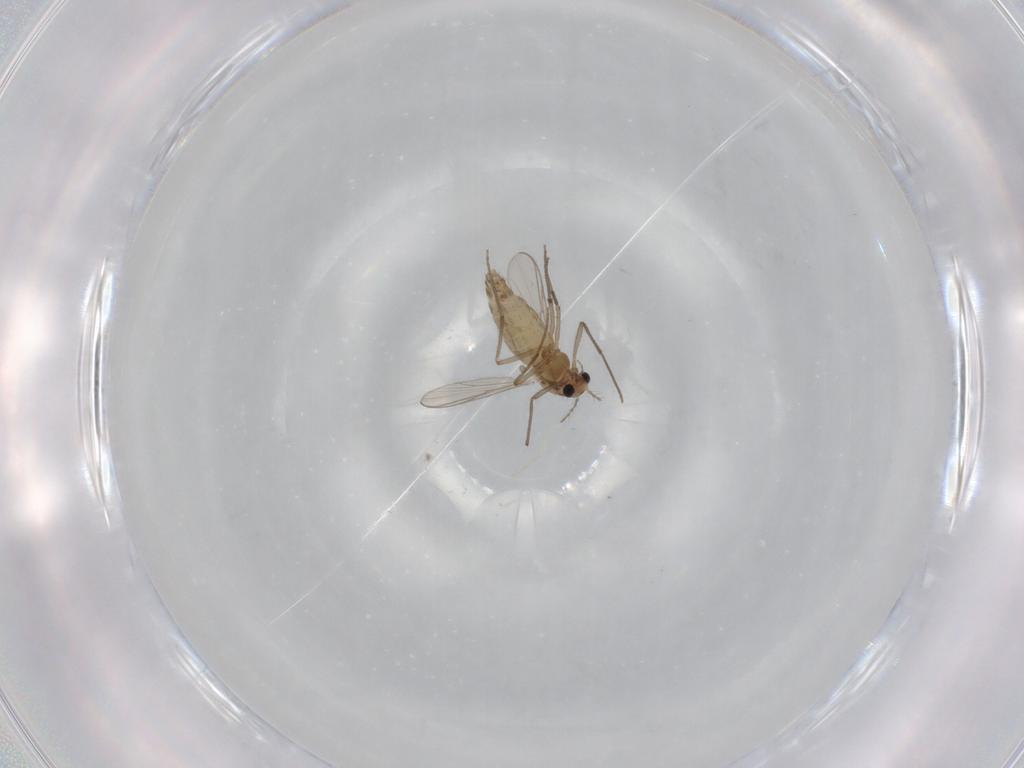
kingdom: Animalia
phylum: Arthropoda
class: Insecta
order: Diptera
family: Chironomidae
